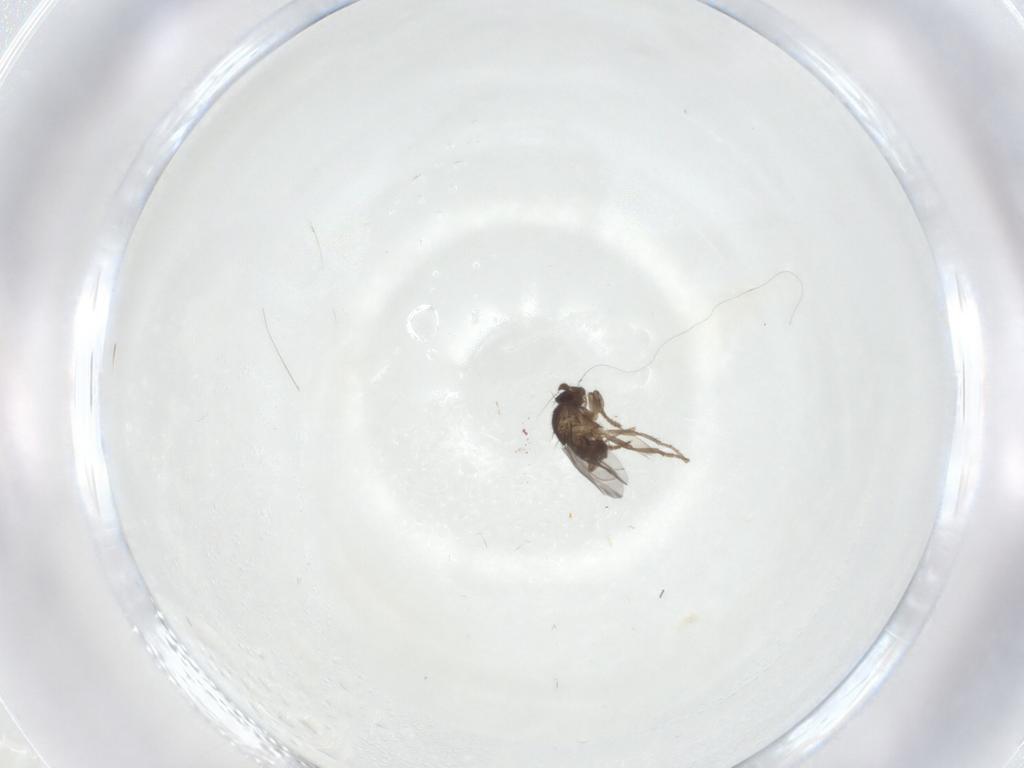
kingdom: Animalia
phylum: Arthropoda
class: Insecta
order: Diptera
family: Sphaeroceridae
